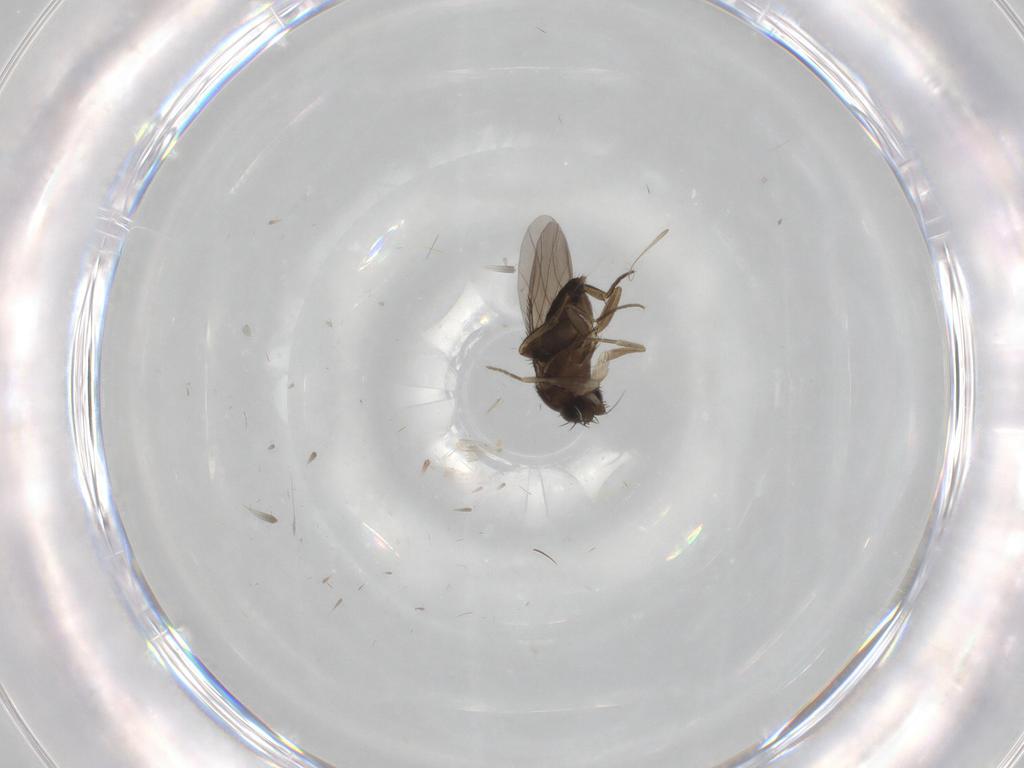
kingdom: Animalia
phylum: Arthropoda
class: Insecta
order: Diptera
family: Phoridae
